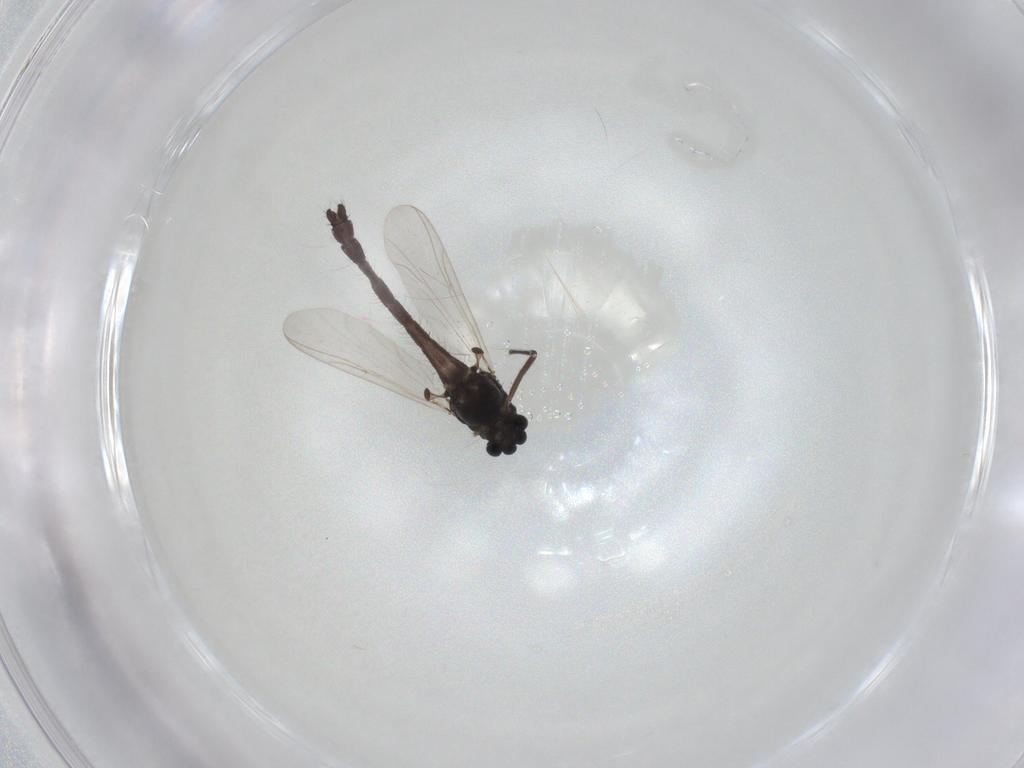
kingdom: Animalia
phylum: Arthropoda
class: Insecta
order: Diptera
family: Chironomidae
